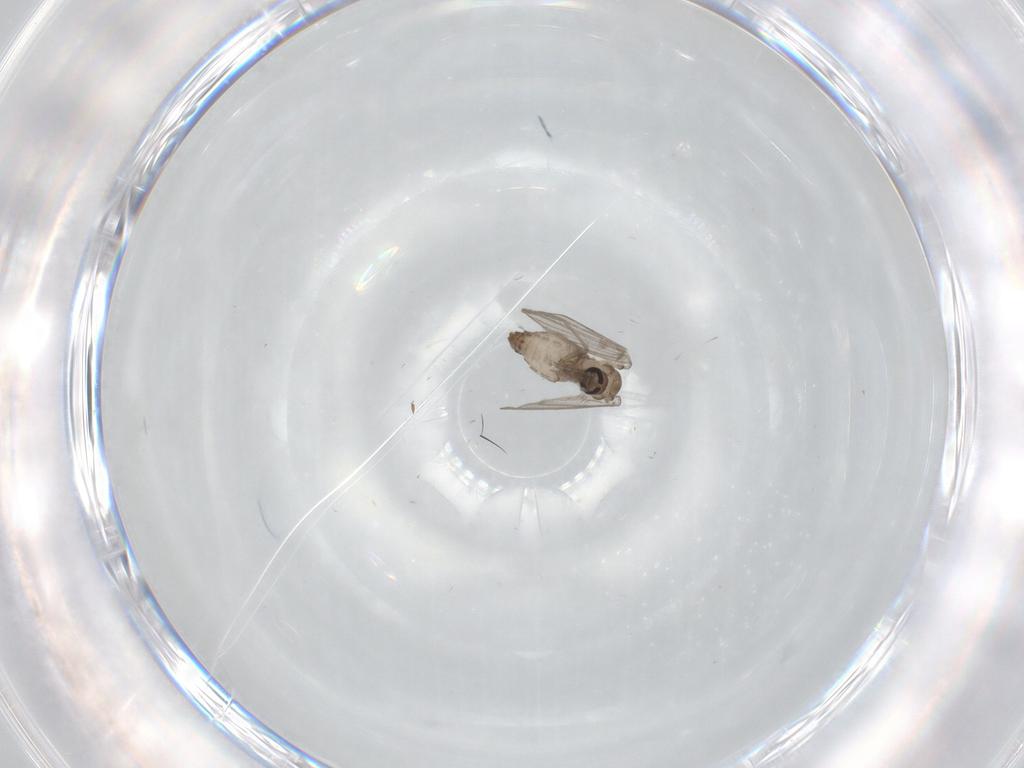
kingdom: Animalia
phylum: Arthropoda
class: Insecta
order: Diptera
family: Psychodidae
